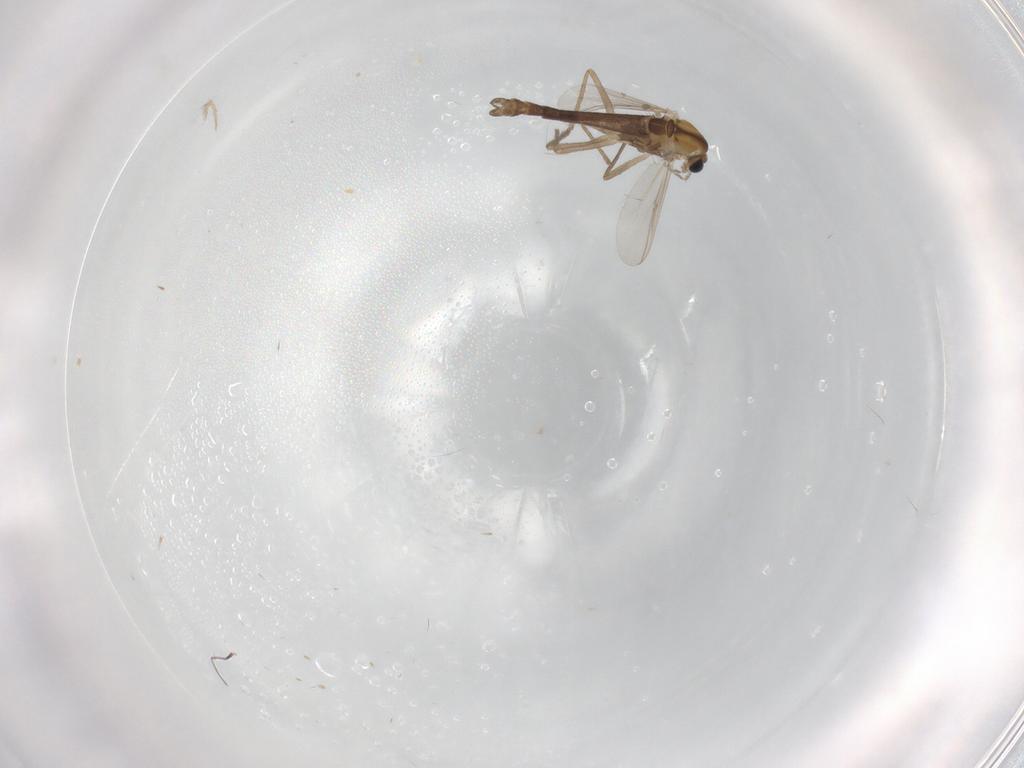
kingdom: Animalia
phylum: Arthropoda
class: Insecta
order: Diptera
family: Chironomidae
